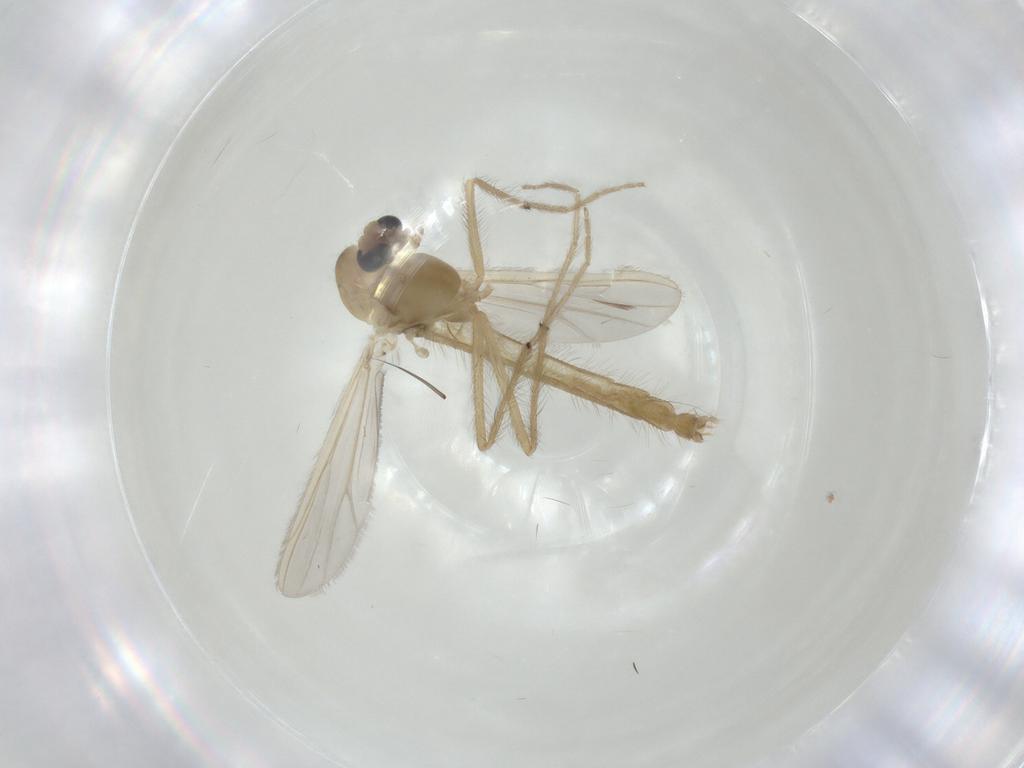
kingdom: Animalia
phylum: Arthropoda
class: Insecta
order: Diptera
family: Chironomidae
